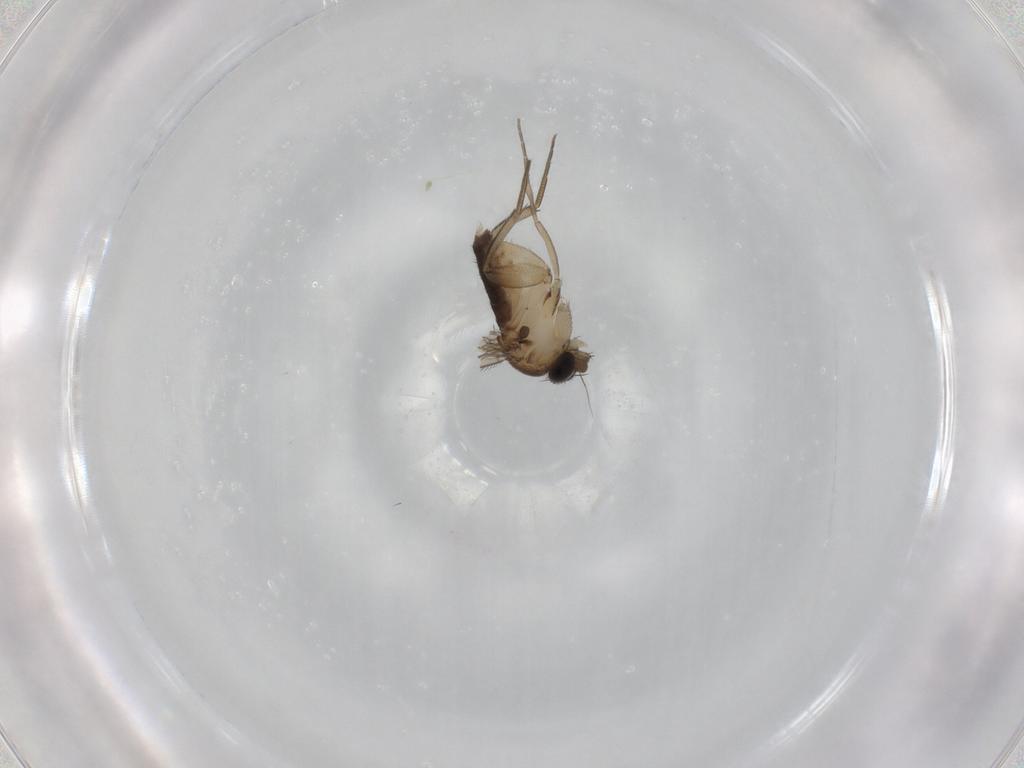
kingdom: Animalia
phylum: Arthropoda
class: Insecta
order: Diptera
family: Phoridae
